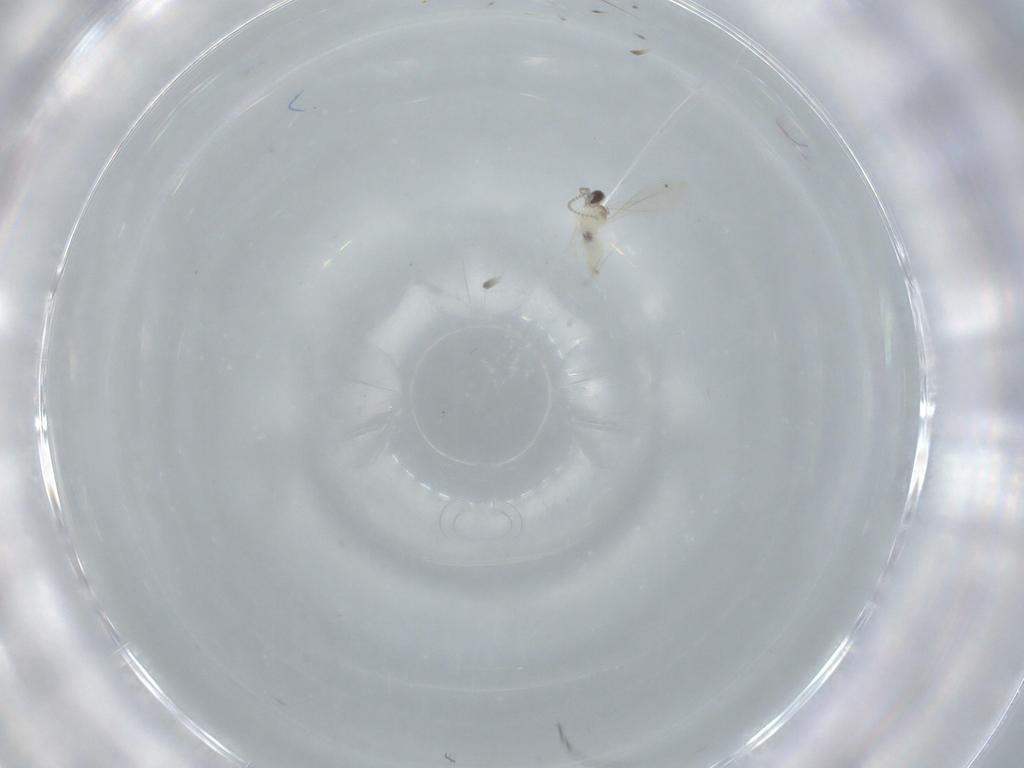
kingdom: Animalia
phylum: Arthropoda
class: Insecta
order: Diptera
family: Cecidomyiidae
